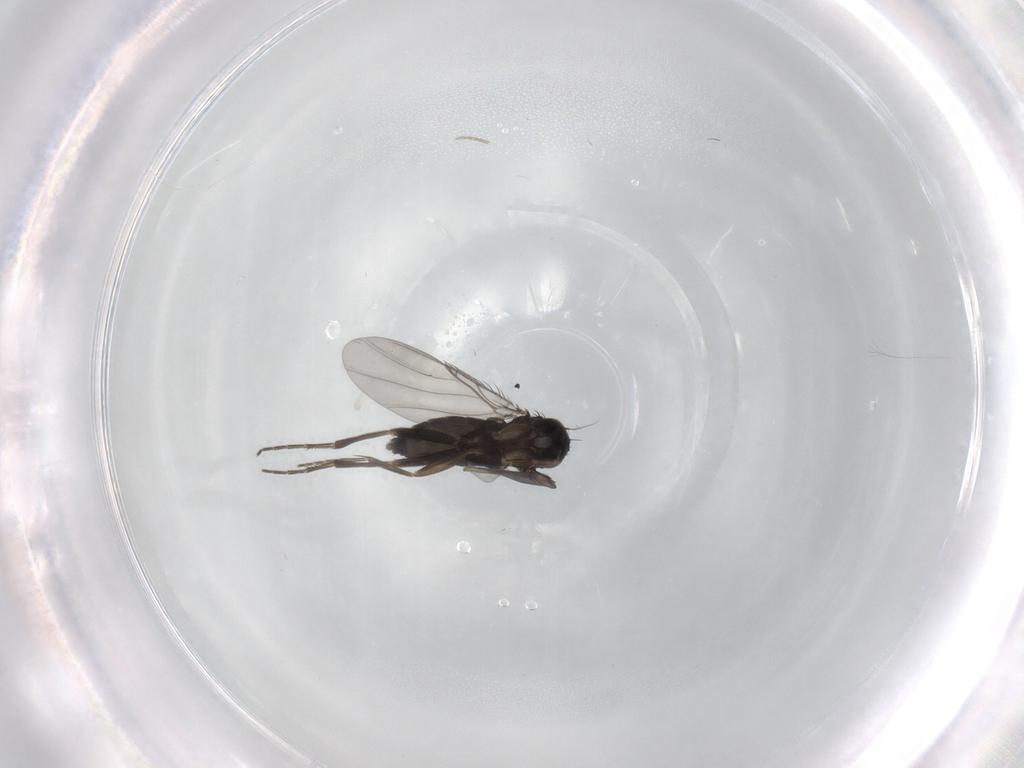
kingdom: Animalia
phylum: Arthropoda
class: Insecta
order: Diptera
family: Phoridae
